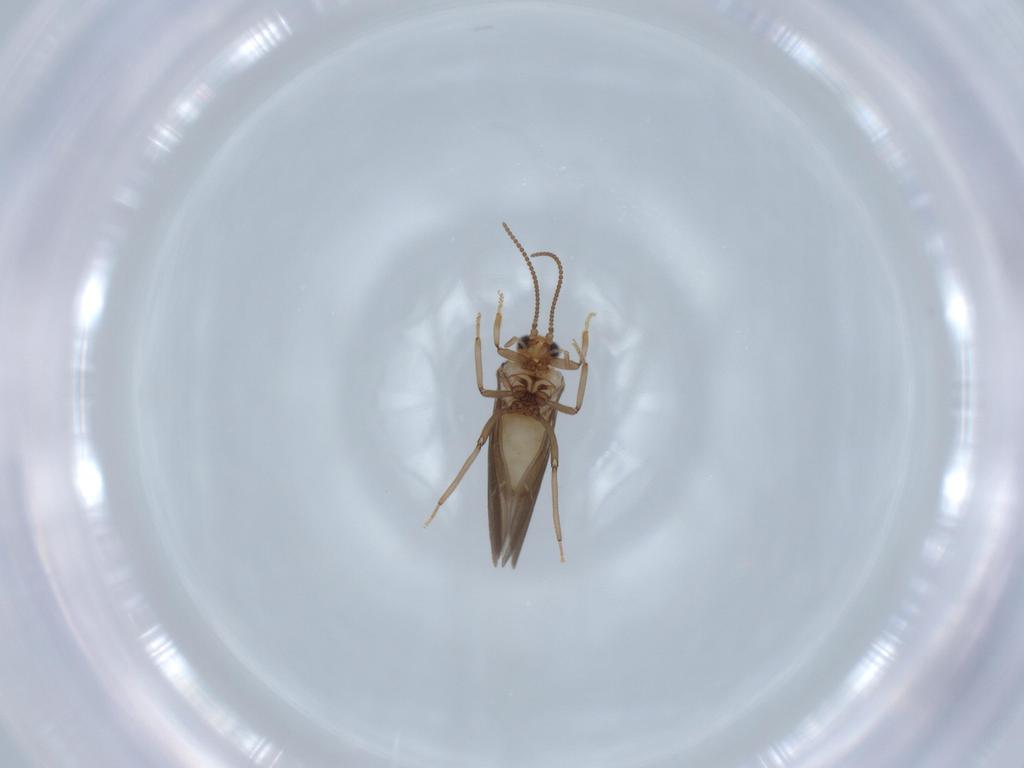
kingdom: Animalia
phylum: Arthropoda
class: Insecta
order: Neuroptera
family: Coniopterygidae
